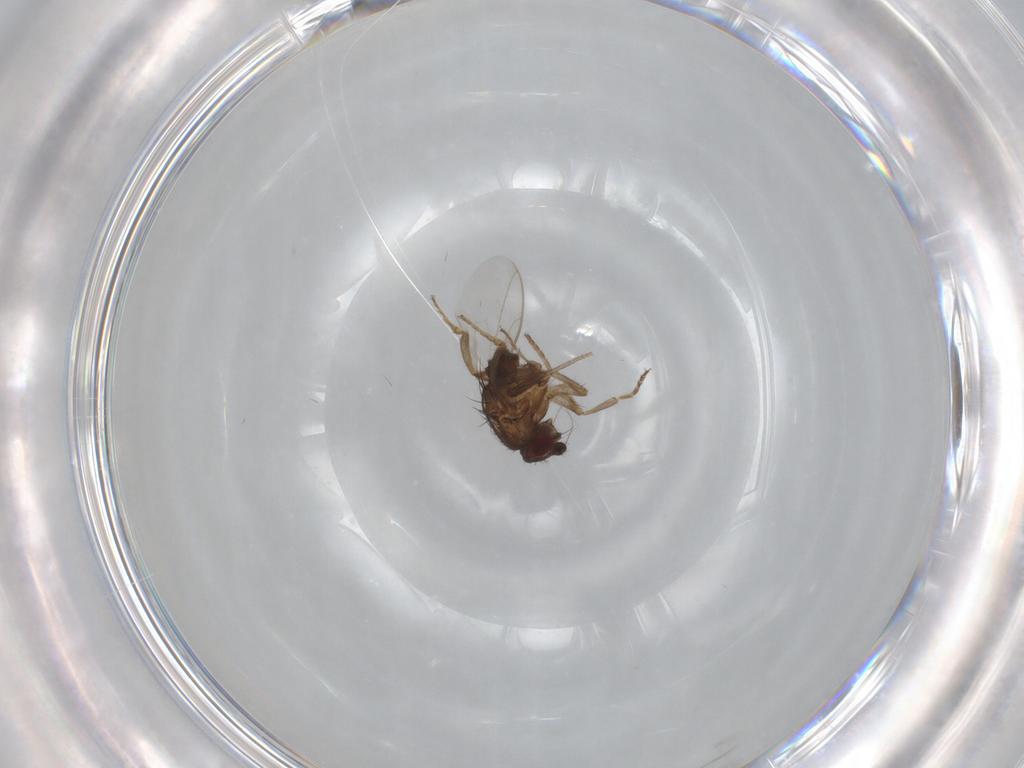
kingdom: Animalia
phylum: Arthropoda
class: Insecta
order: Diptera
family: Sphaeroceridae
